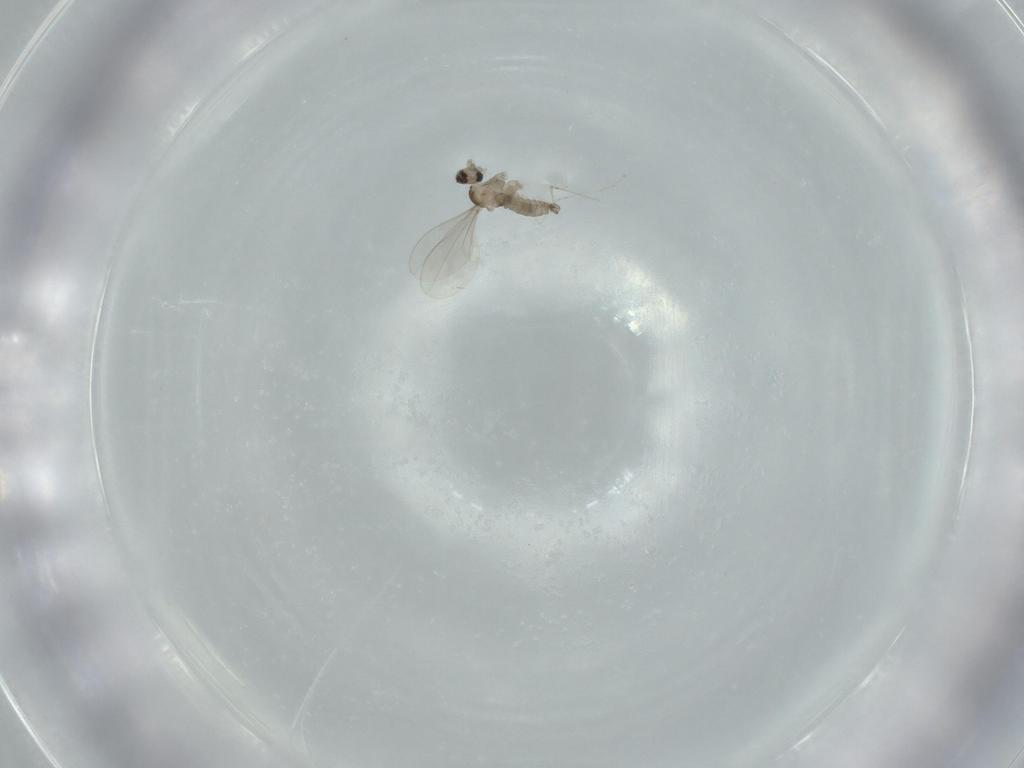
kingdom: Animalia
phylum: Arthropoda
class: Insecta
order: Diptera
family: Cecidomyiidae
